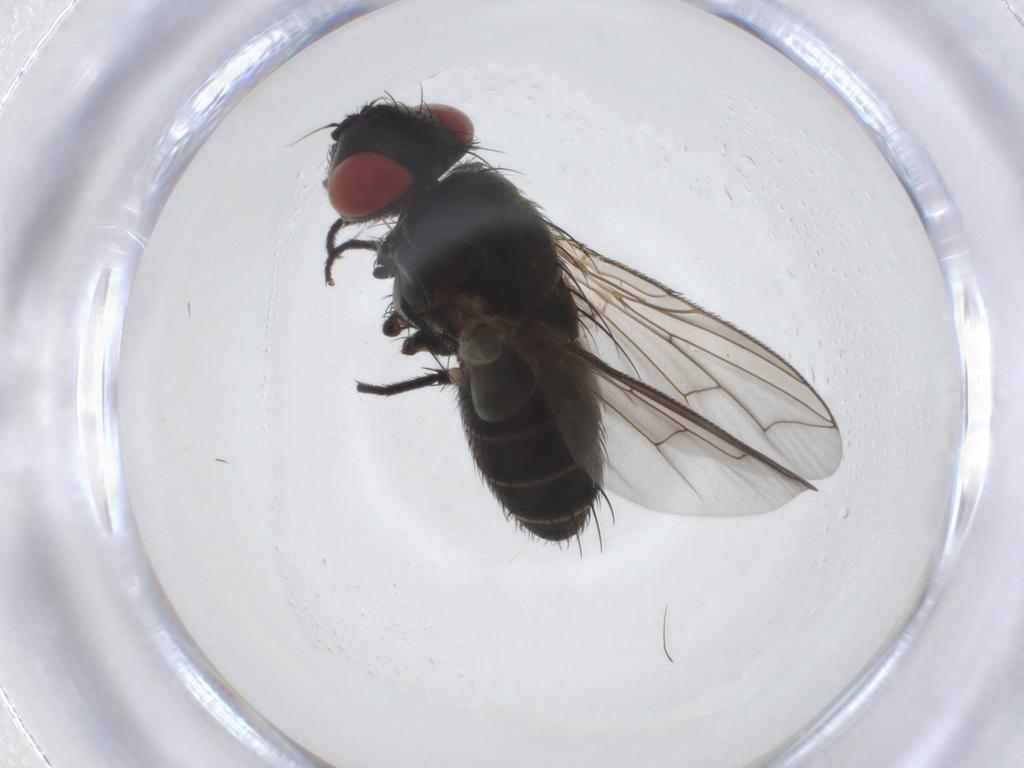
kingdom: Animalia
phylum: Arthropoda
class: Insecta
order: Diptera
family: Sarcophagidae
